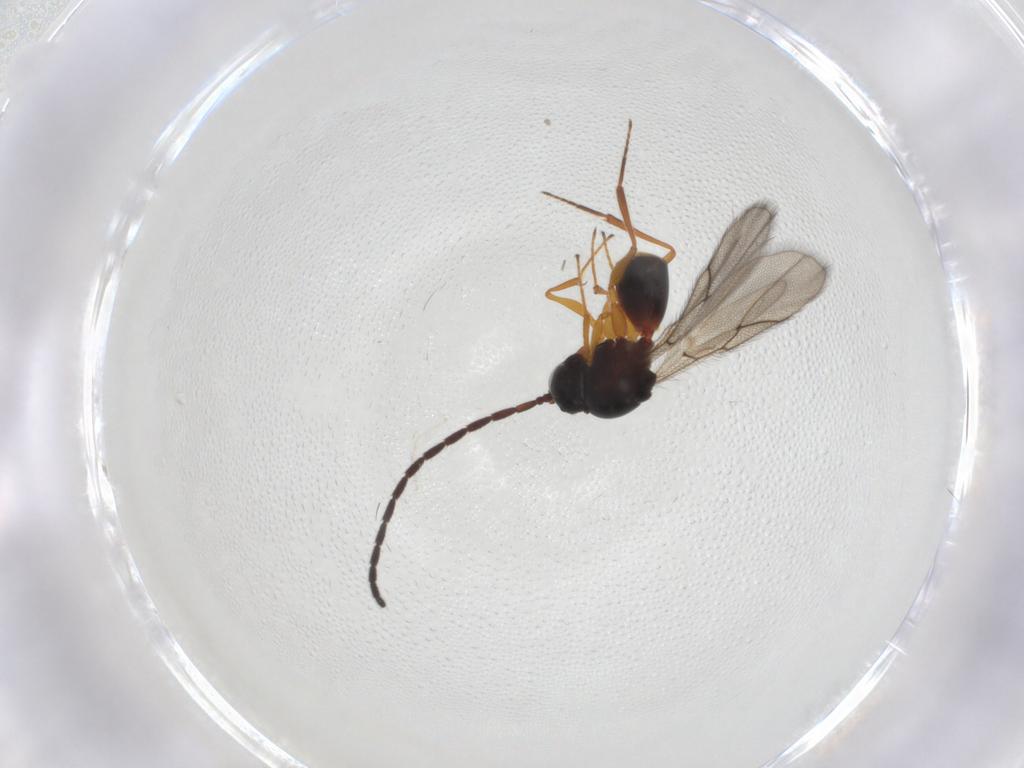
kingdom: Animalia
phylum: Arthropoda
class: Insecta
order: Hymenoptera
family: Figitidae
